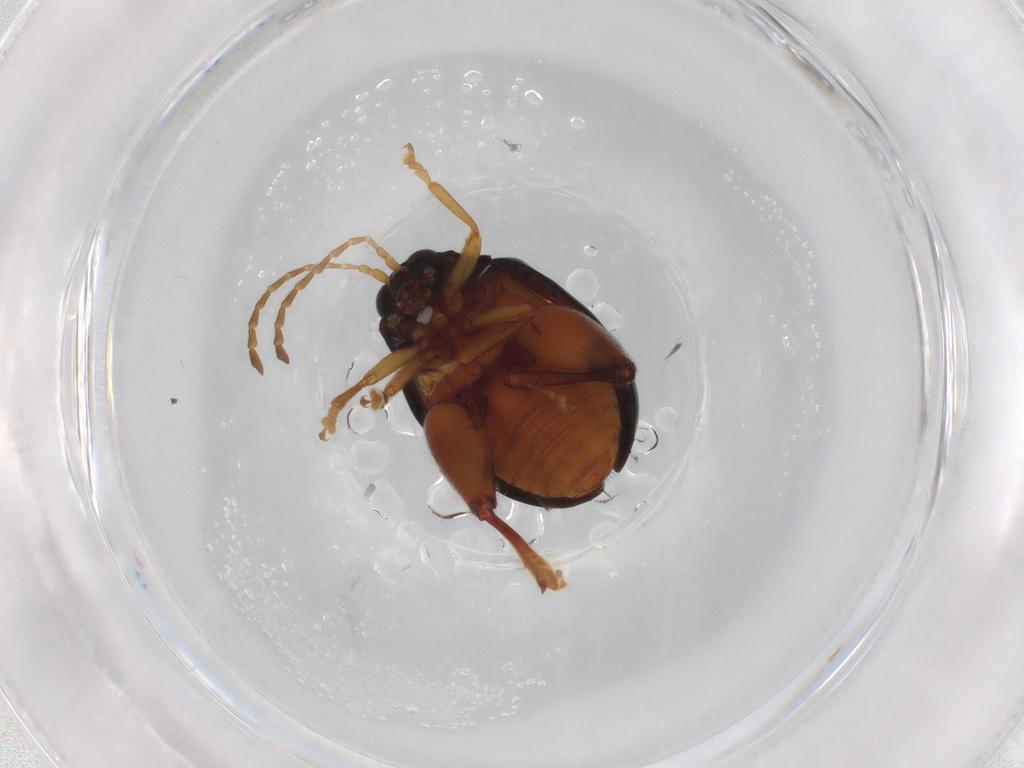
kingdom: Animalia
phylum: Arthropoda
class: Insecta
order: Coleoptera
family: Chrysomelidae
